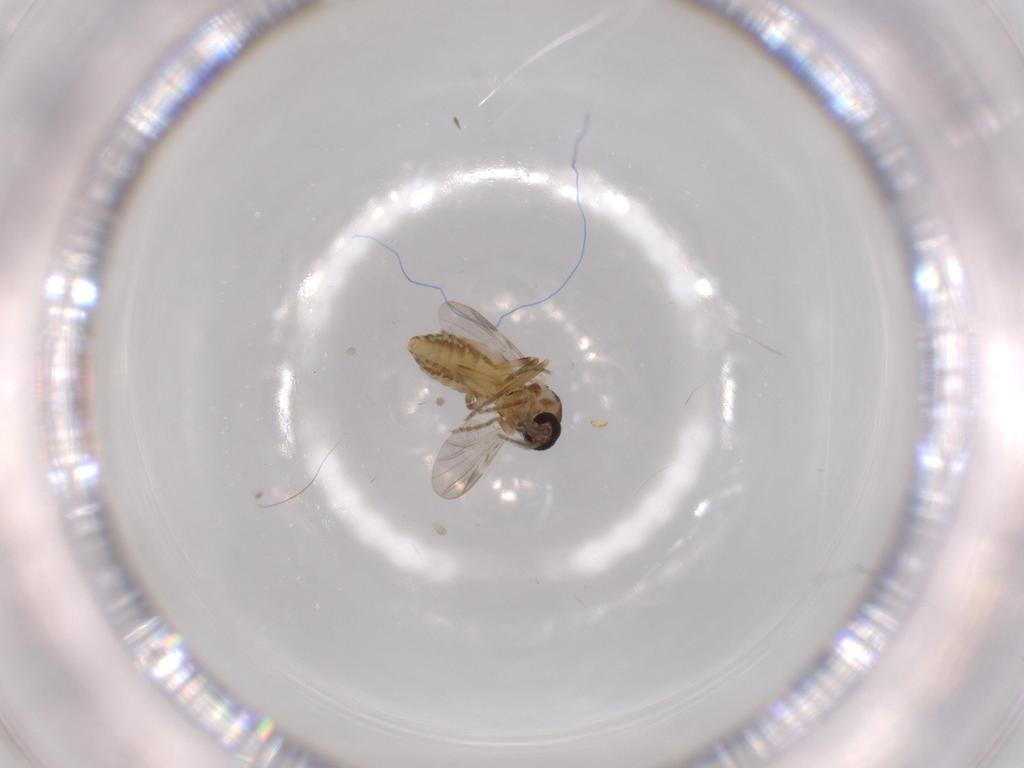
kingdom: Animalia
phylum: Arthropoda
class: Insecta
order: Diptera
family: Ceratopogonidae
